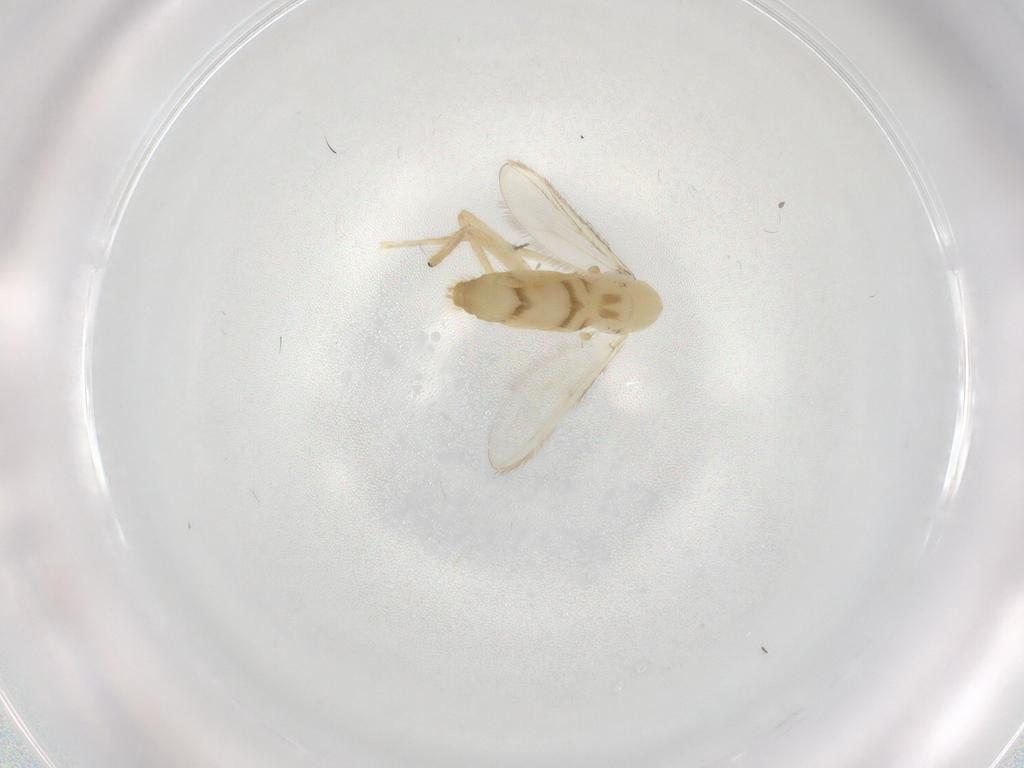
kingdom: Animalia
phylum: Arthropoda
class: Insecta
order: Diptera
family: Chironomidae
